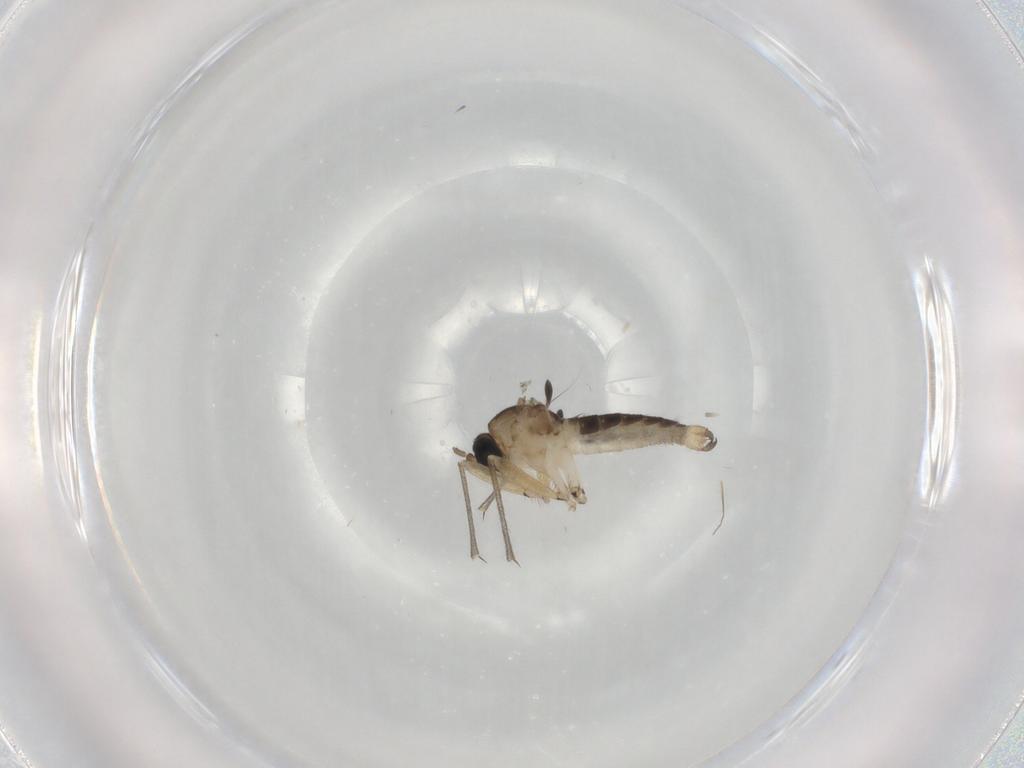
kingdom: Animalia
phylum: Arthropoda
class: Insecta
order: Diptera
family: Sciaridae
